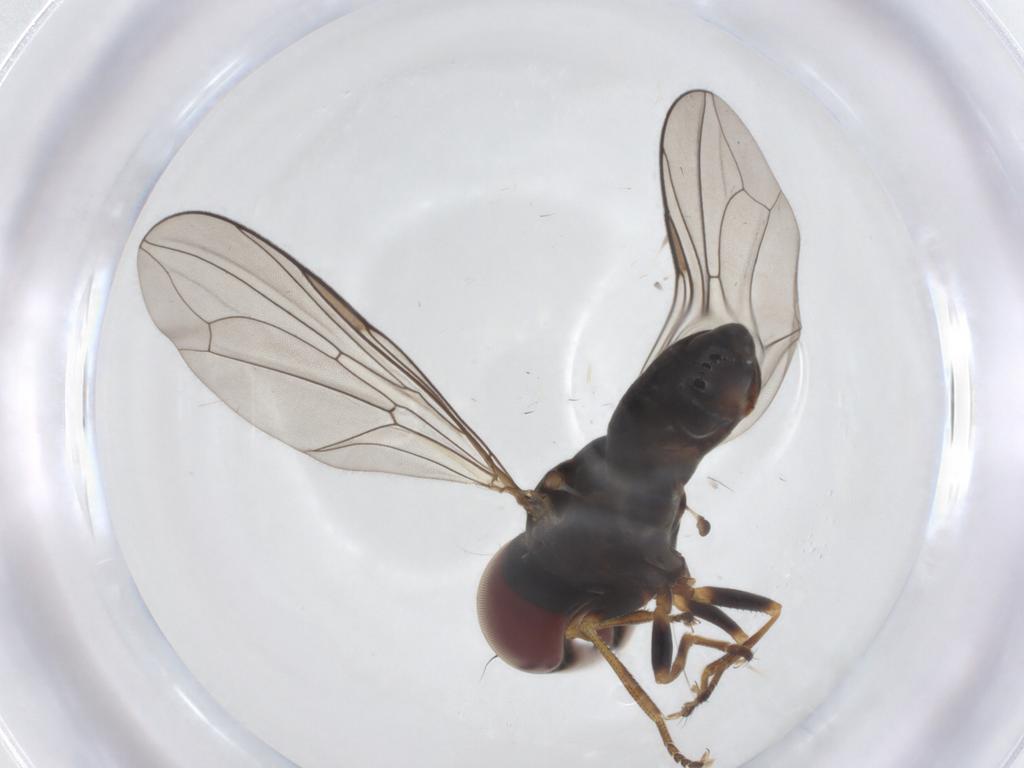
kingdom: Animalia
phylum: Arthropoda
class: Insecta
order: Diptera
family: Pipunculidae
